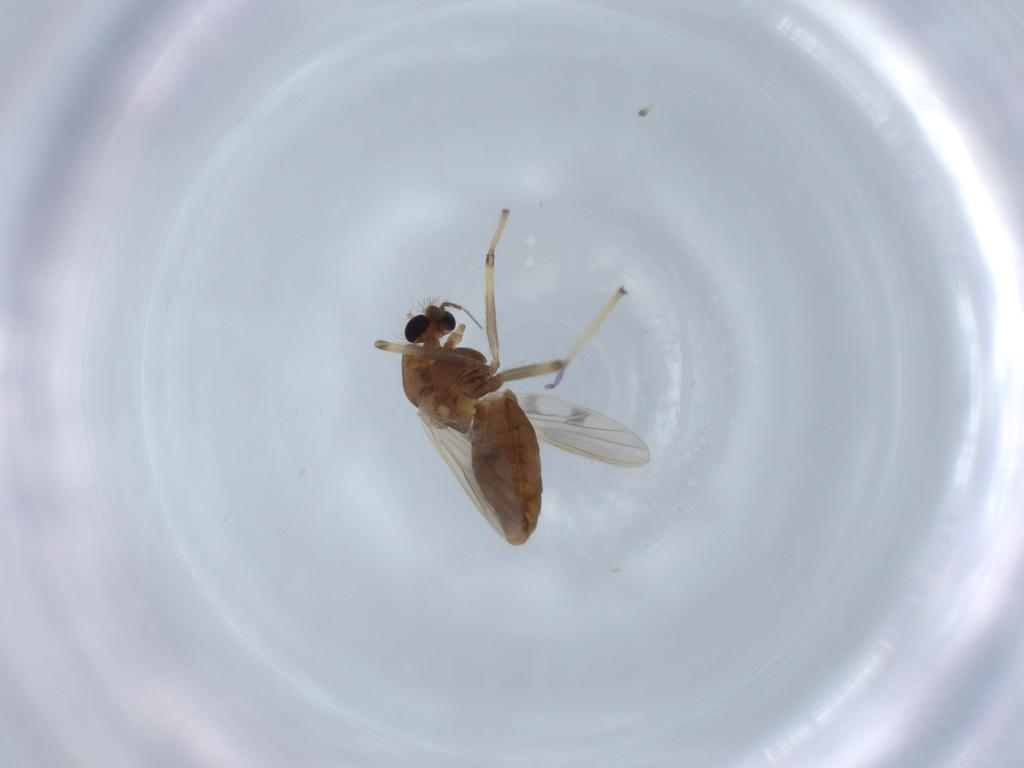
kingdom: Animalia
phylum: Arthropoda
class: Insecta
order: Diptera
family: Chironomidae
